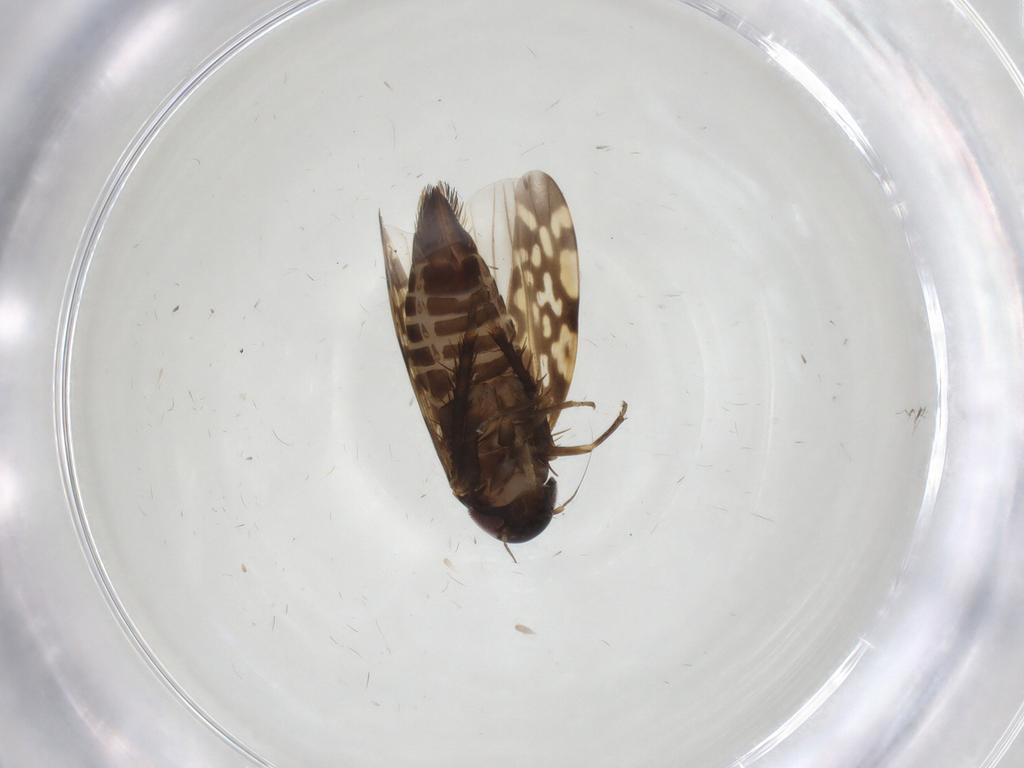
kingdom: Animalia
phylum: Arthropoda
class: Insecta
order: Hemiptera
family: Cicadellidae
